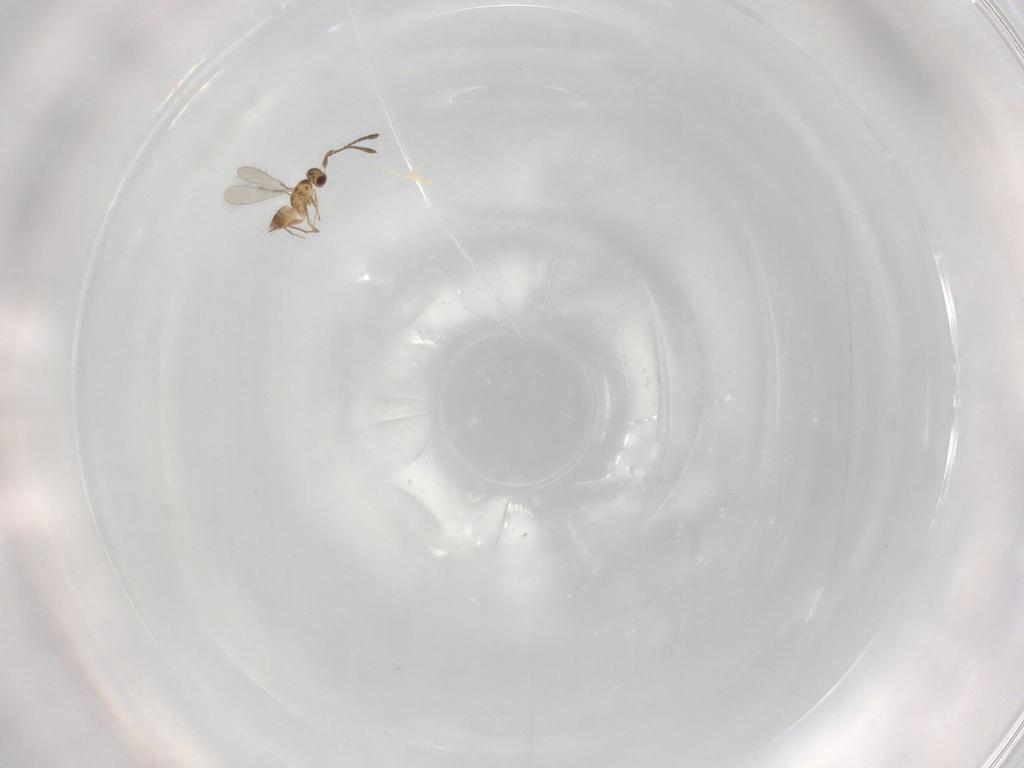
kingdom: Animalia
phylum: Arthropoda
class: Insecta
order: Hymenoptera
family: Mymaridae
